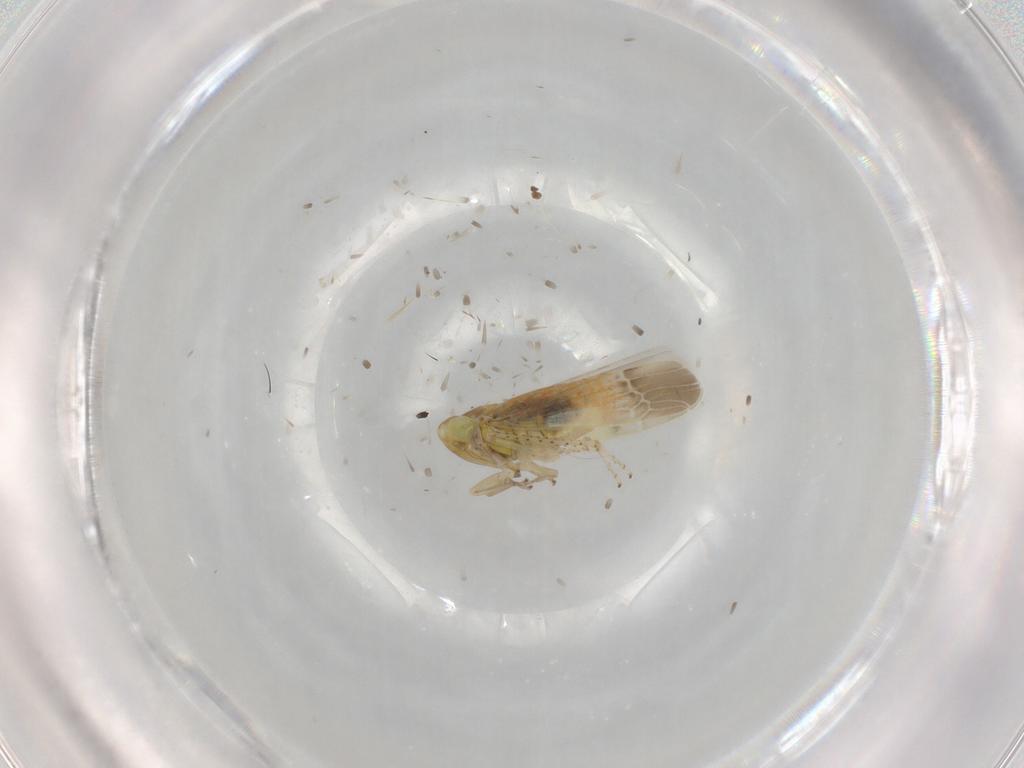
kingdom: Animalia
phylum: Arthropoda
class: Insecta
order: Hemiptera
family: Cicadellidae
